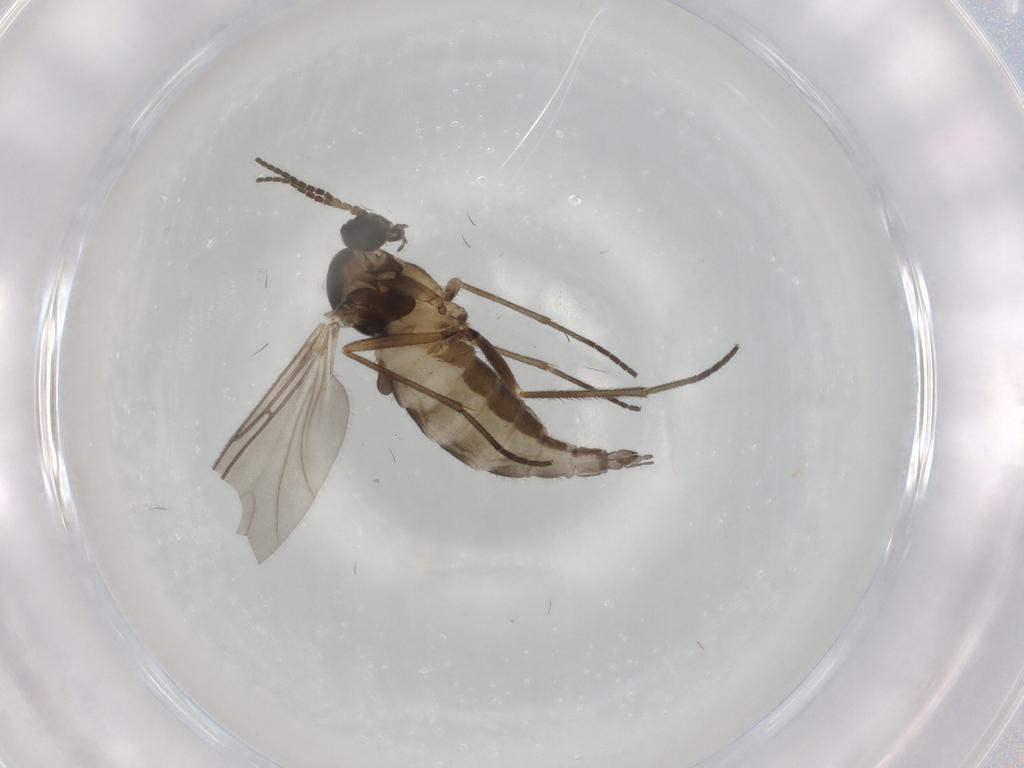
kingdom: Animalia
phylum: Arthropoda
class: Insecta
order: Diptera
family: Sciaridae
